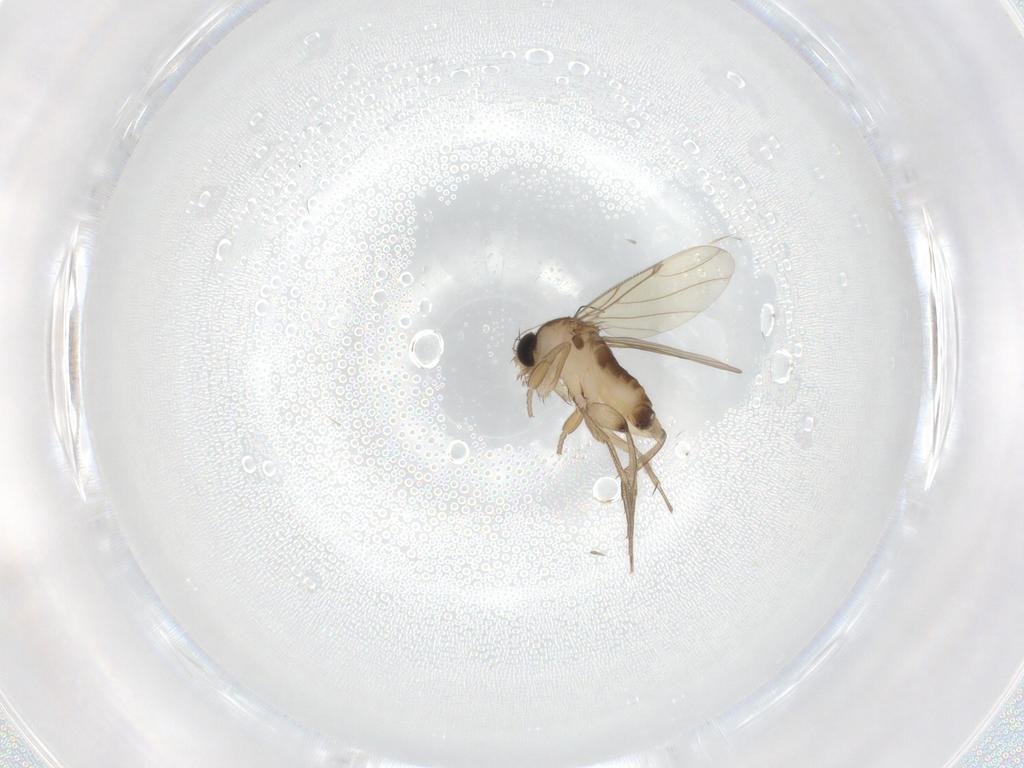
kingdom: Animalia
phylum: Arthropoda
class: Insecta
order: Diptera
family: Phoridae
